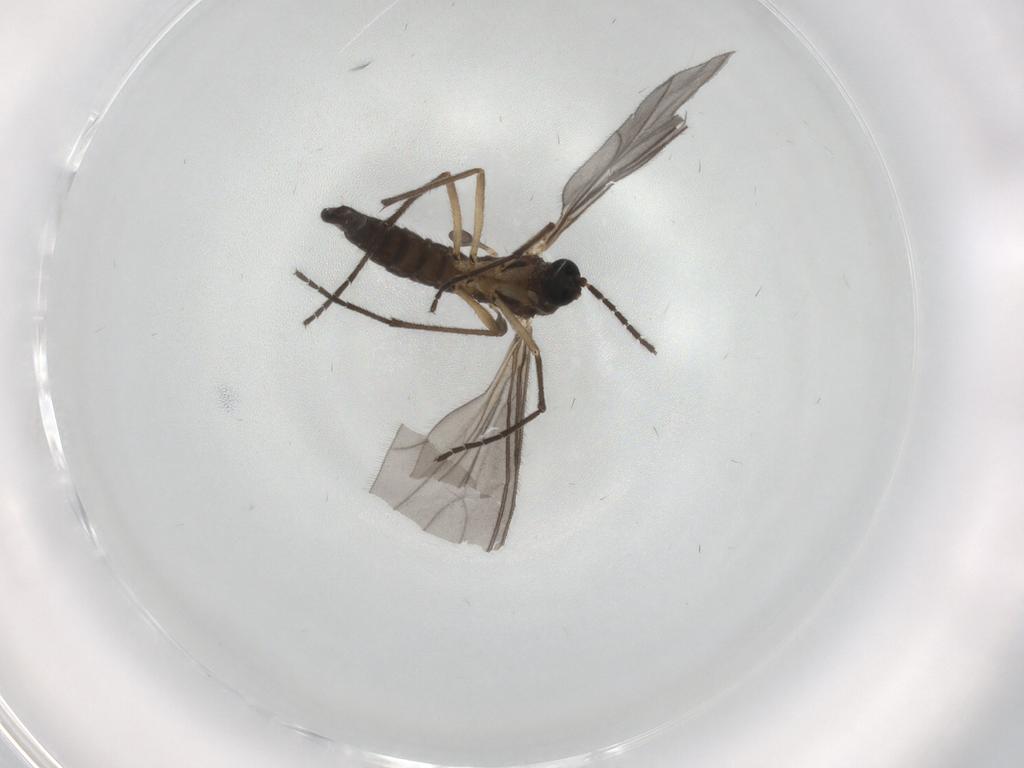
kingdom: Animalia
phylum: Arthropoda
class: Insecta
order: Diptera
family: Sciaridae
